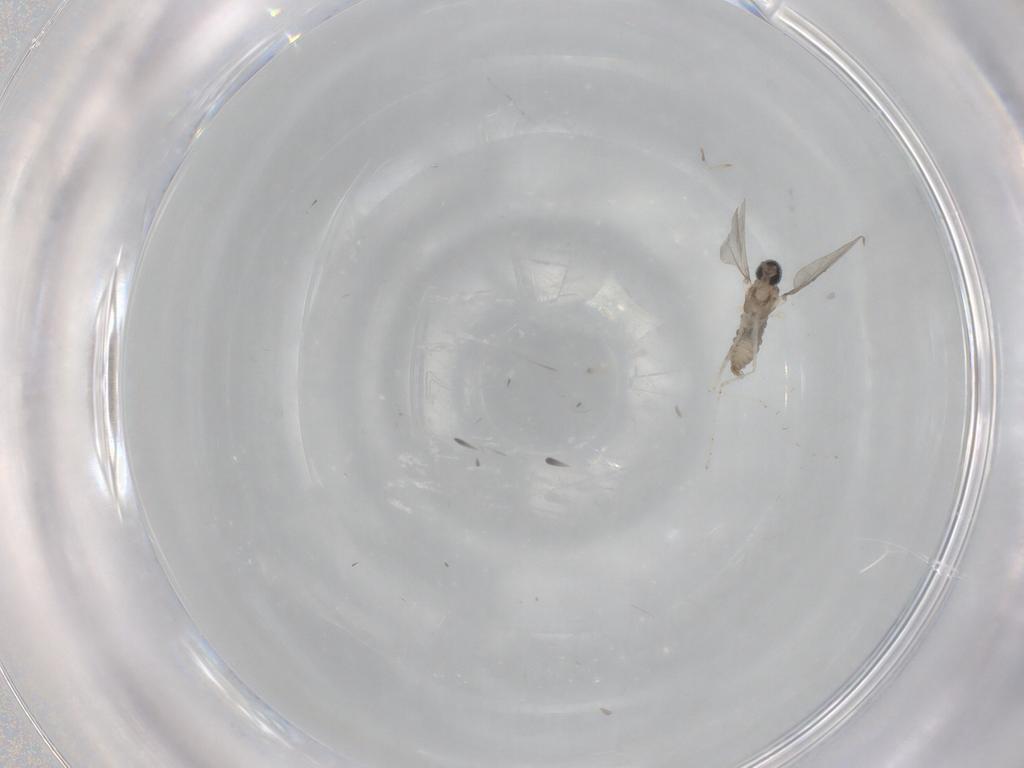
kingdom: Animalia
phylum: Arthropoda
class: Insecta
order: Diptera
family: Cecidomyiidae
